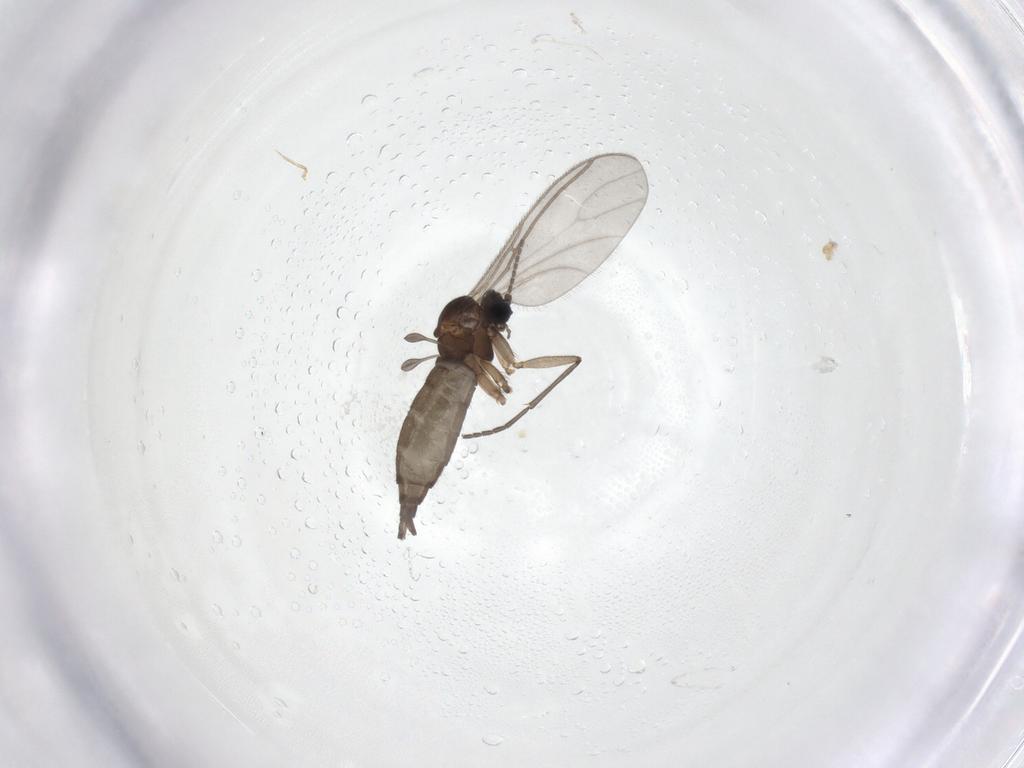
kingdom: Animalia
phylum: Arthropoda
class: Insecta
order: Diptera
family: Sciaridae
